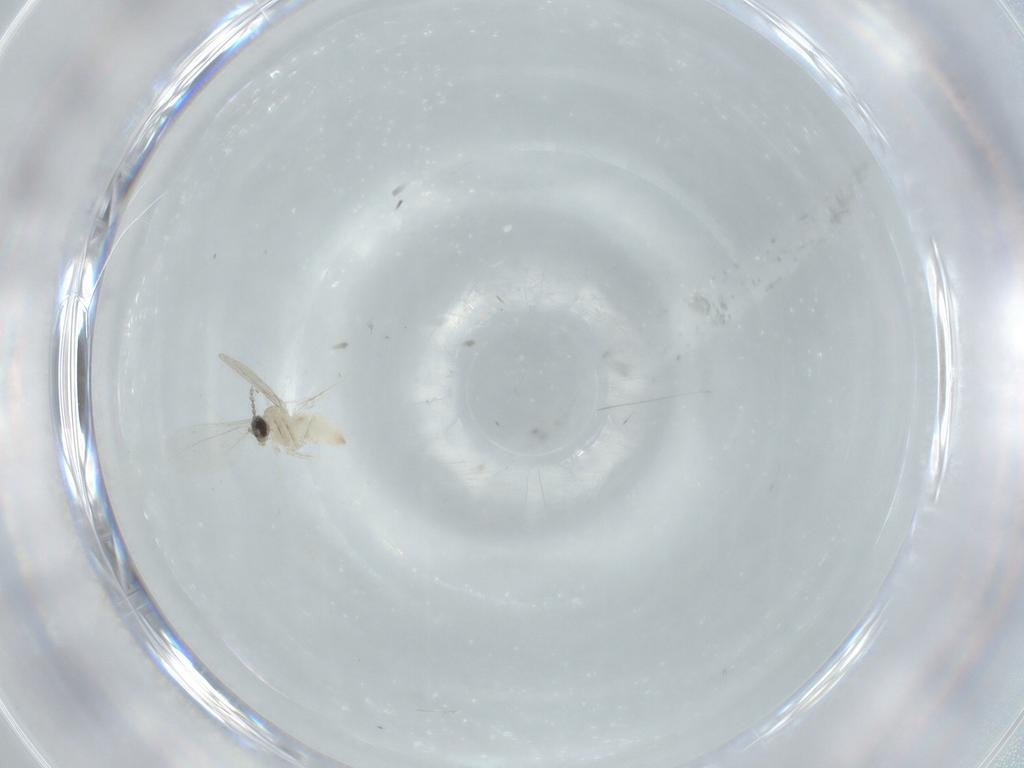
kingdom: Animalia
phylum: Arthropoda
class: Insecta
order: Diptera
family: Cecidomyiidae
